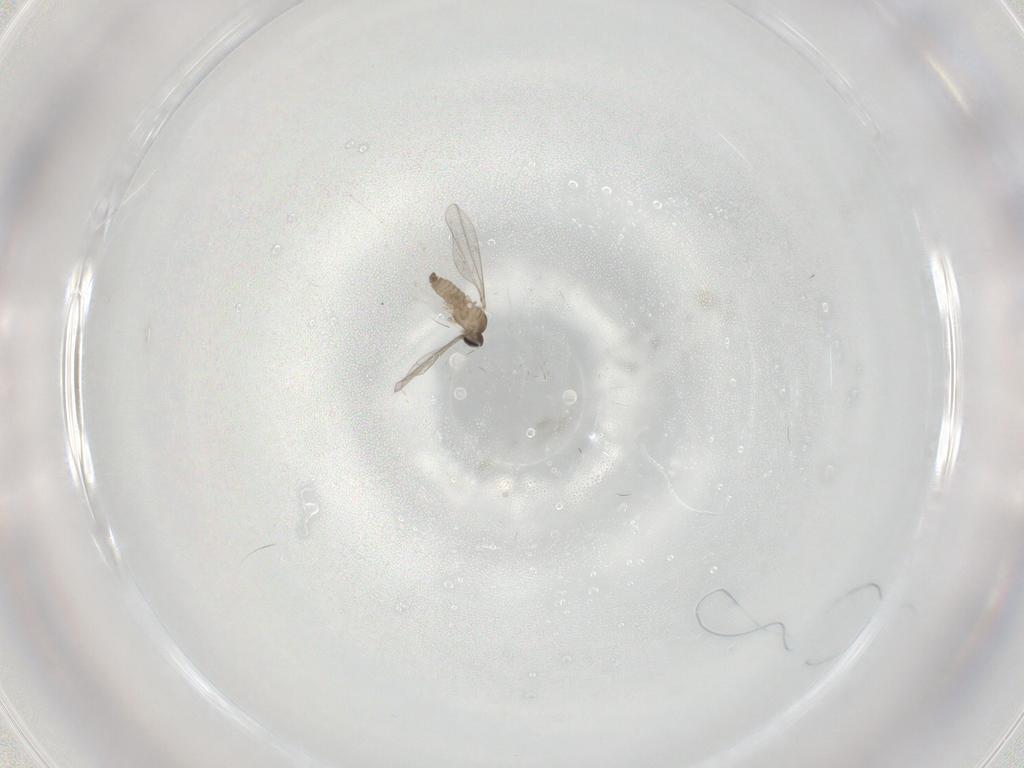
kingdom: Animalia
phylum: Arthropoda
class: Insecta
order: Diptera
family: Cecidomyiidae
